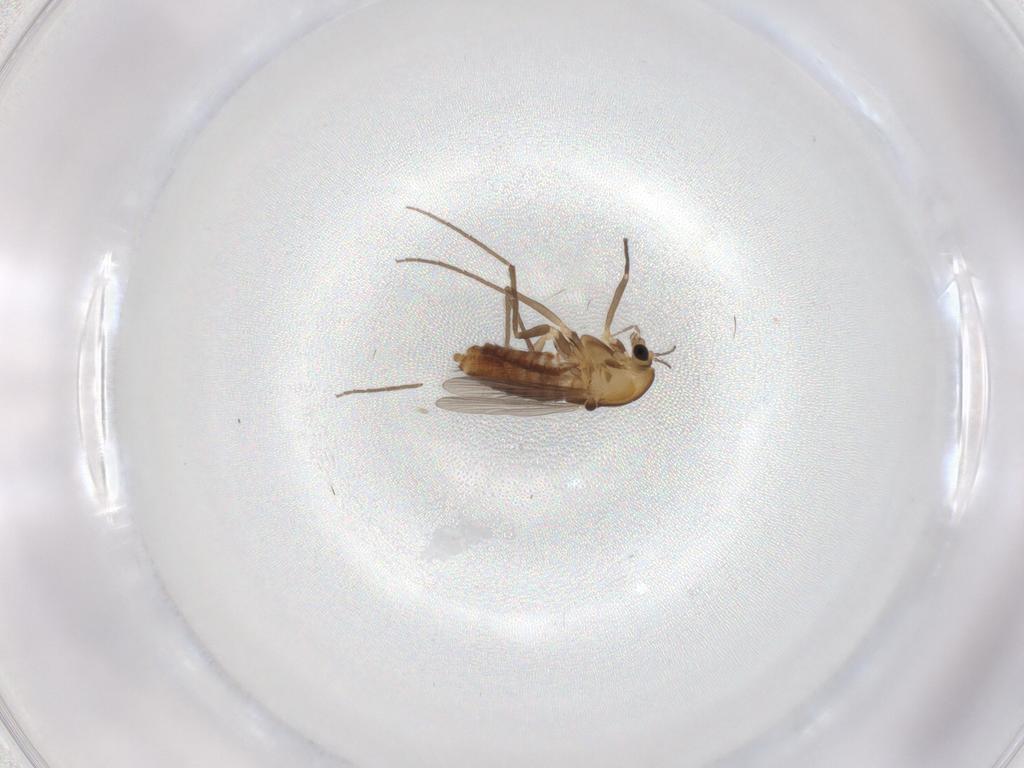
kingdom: Animalia
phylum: Arthropoda
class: Insecta
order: Diptera
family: Chironomidae
